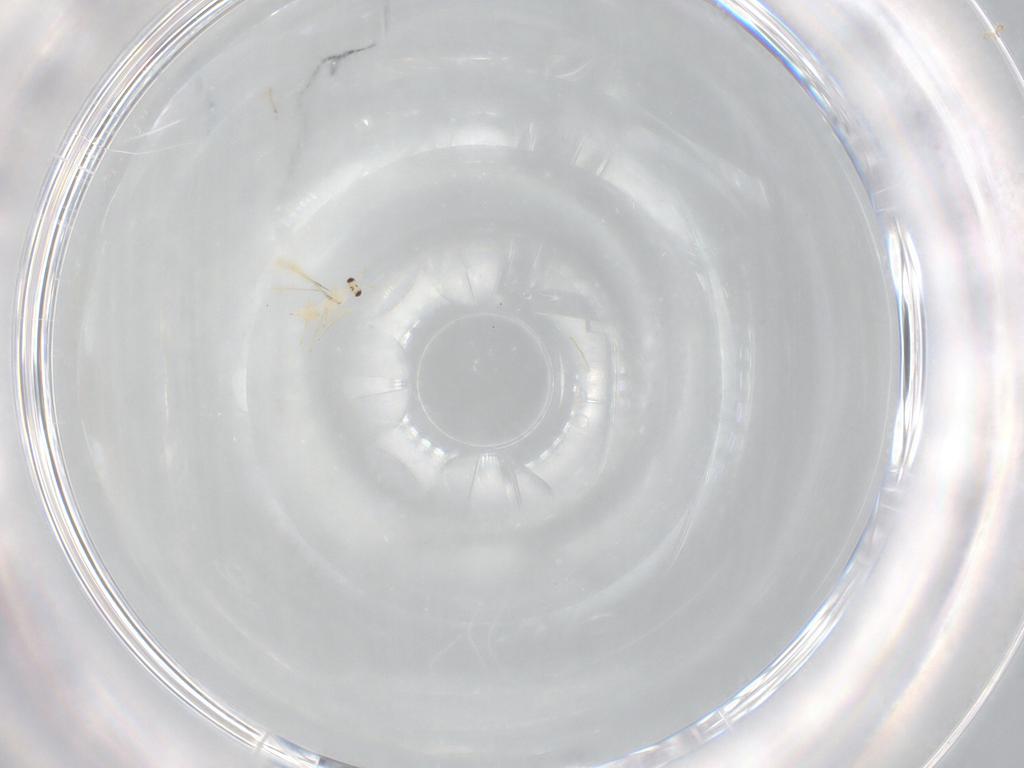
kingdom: Animalia
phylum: Arthropoda
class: Insecta
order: Hymenoptera
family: Mymaridae
